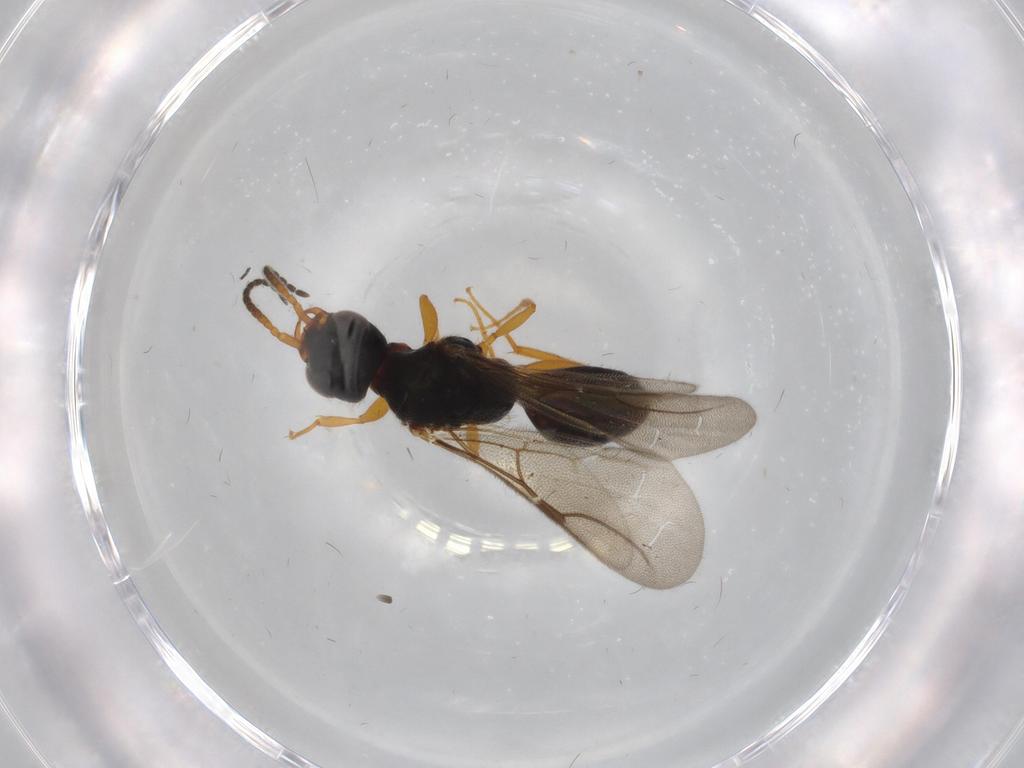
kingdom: Animalia
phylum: Arthropoda
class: Insecta
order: Hymenoptera
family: Bethylidae
